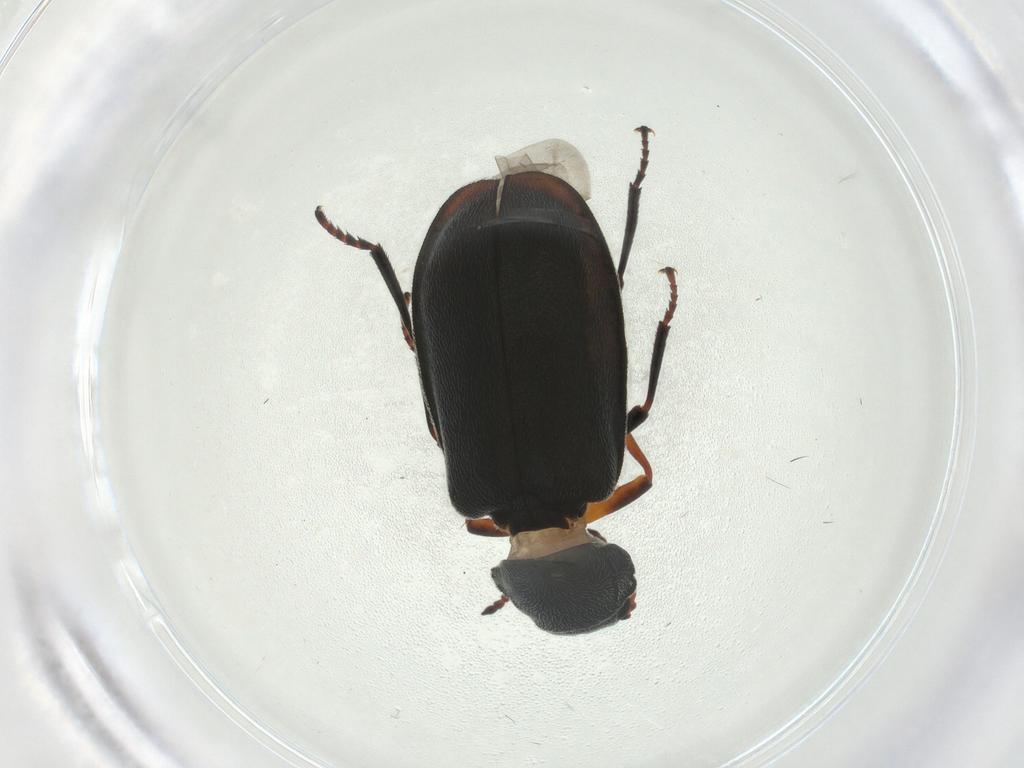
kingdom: Animalia
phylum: Arthropoda
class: Insecta
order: Coleoptera
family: Melyridae
